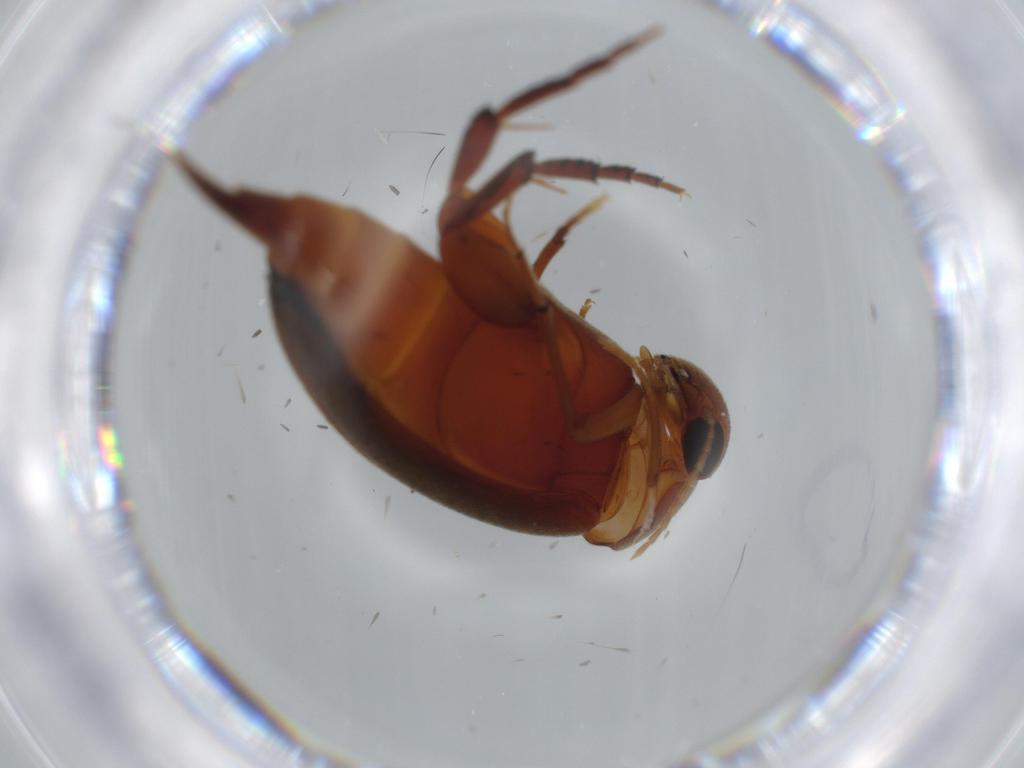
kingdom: Animalia
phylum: Arthropoda
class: Insecta
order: Coleoptera
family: Mordellidae
